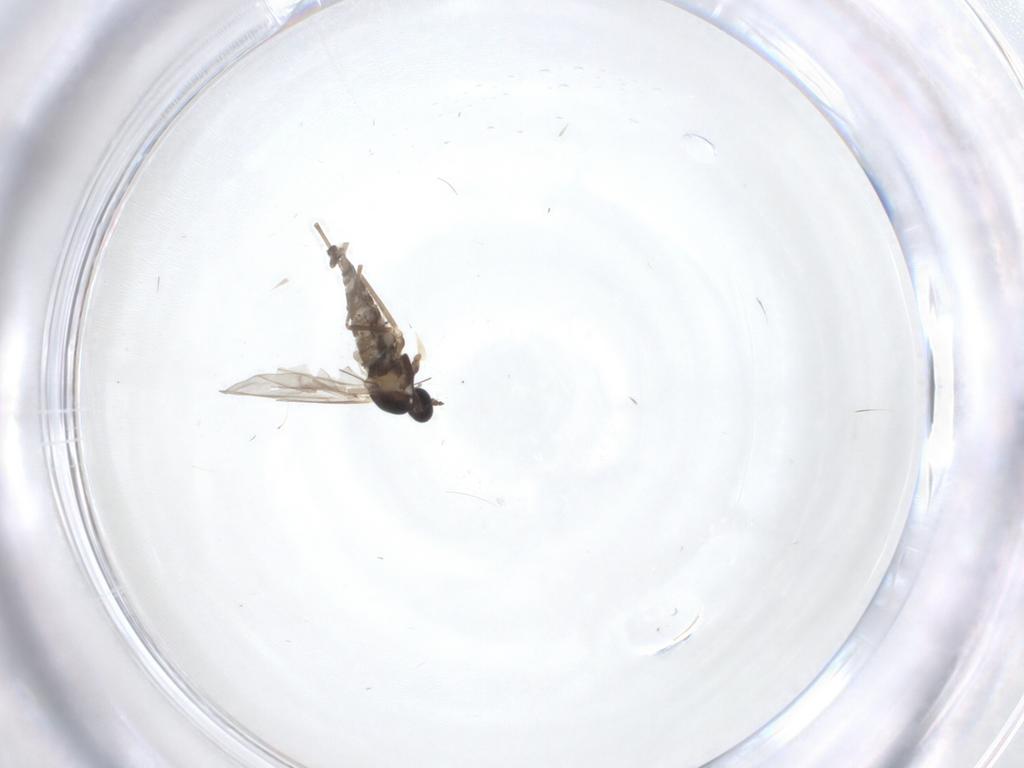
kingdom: Animalia
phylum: Arthropoda
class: Insecta
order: Diptera
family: Cecidomyiidae
